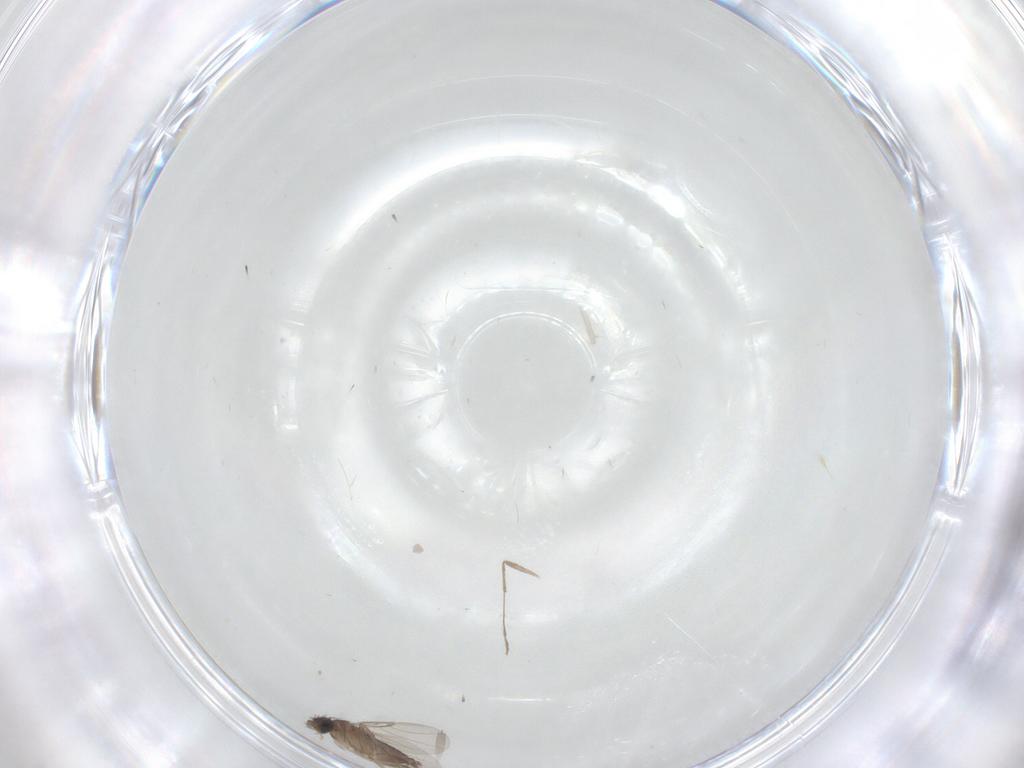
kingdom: Animalia
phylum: Arthropoda
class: Insecta
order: Diptera
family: Phoridae
